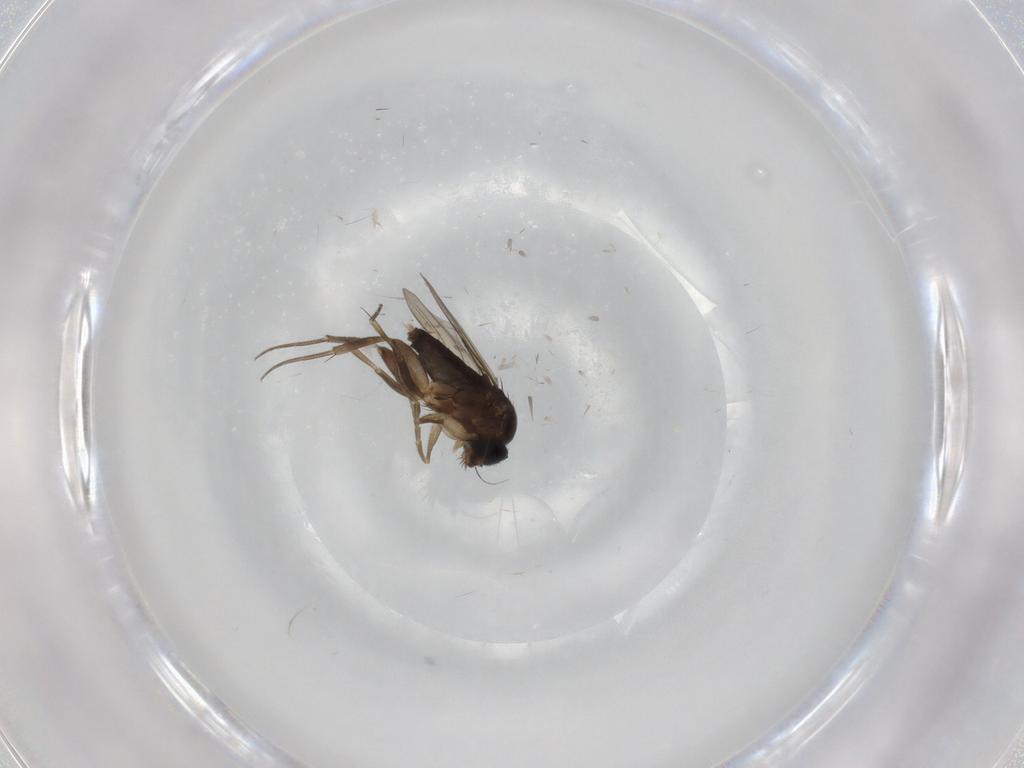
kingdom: Animalia
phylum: Arthropoda
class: Insecta
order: Diptera
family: Phoridae
